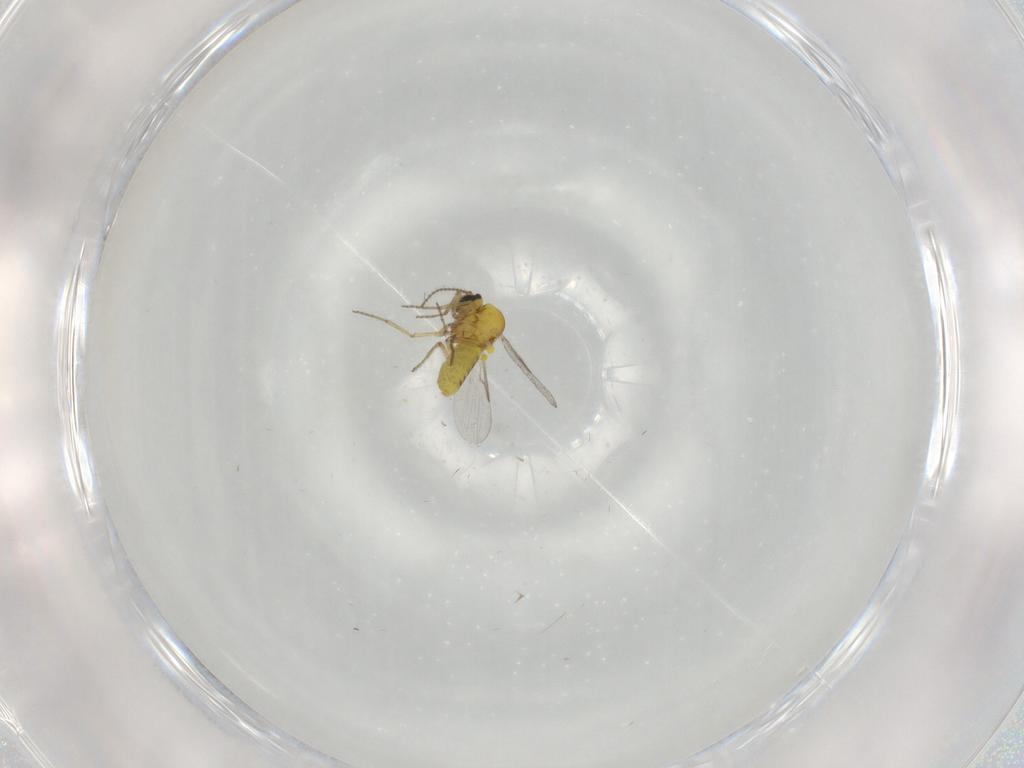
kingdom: Animalia
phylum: Arthropoda
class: Insecta
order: Diptera
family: Ceratopogonidae
